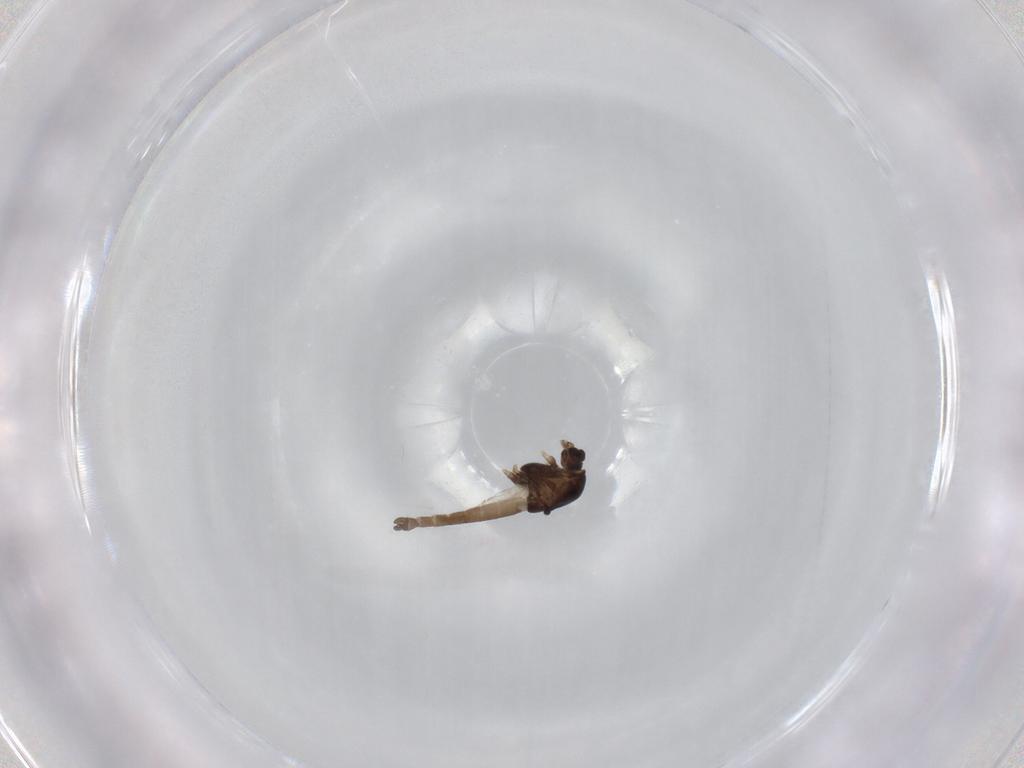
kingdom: Animalia
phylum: Arthropoda
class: Insecta
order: Diptera
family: Chironomidae
